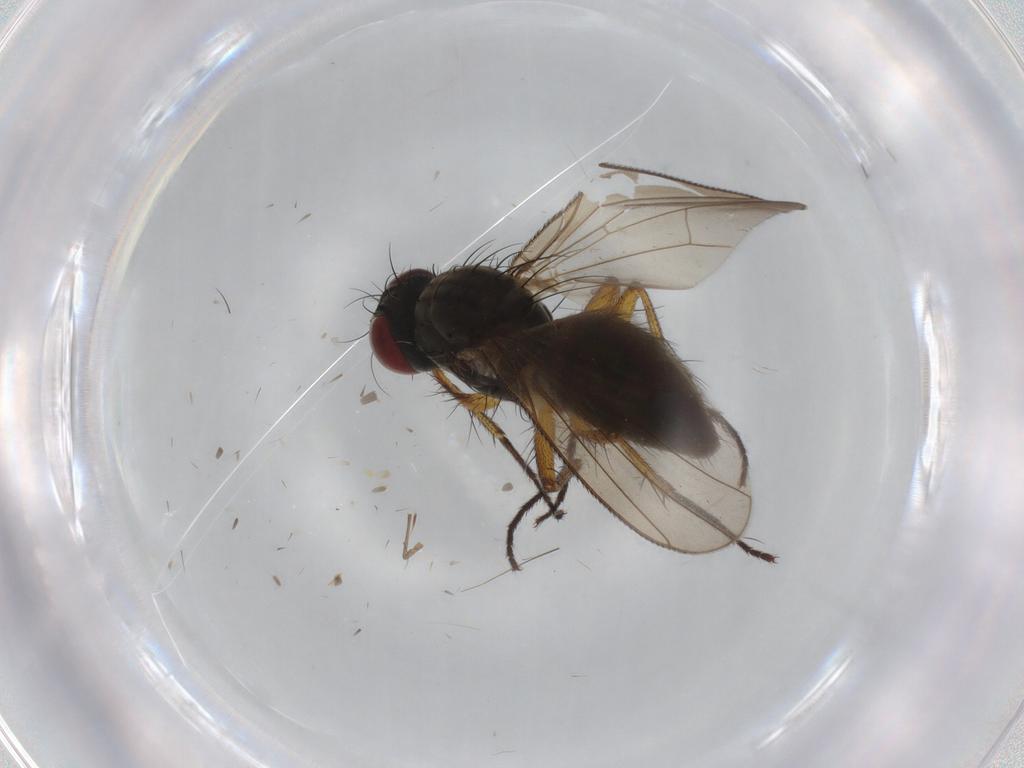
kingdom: Animalia
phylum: Arthropoda
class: Insecta
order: Diptera
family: Muscidae
